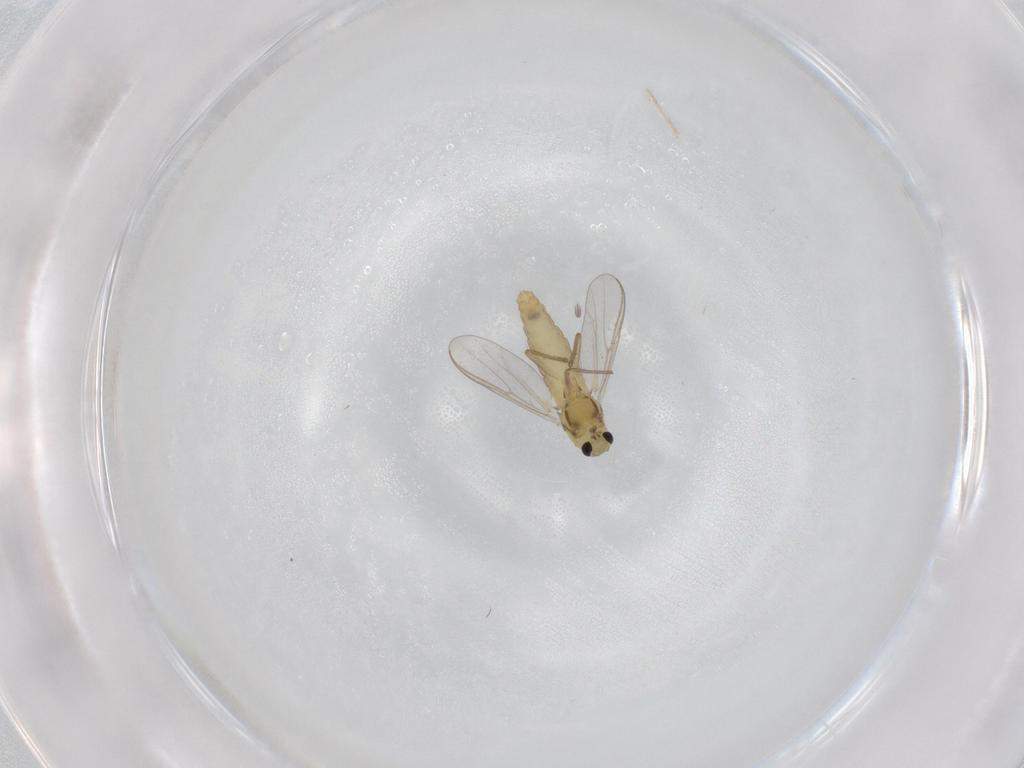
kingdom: Animalia
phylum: Arthropoda
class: Insecta
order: Diptera
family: Chironomidae
